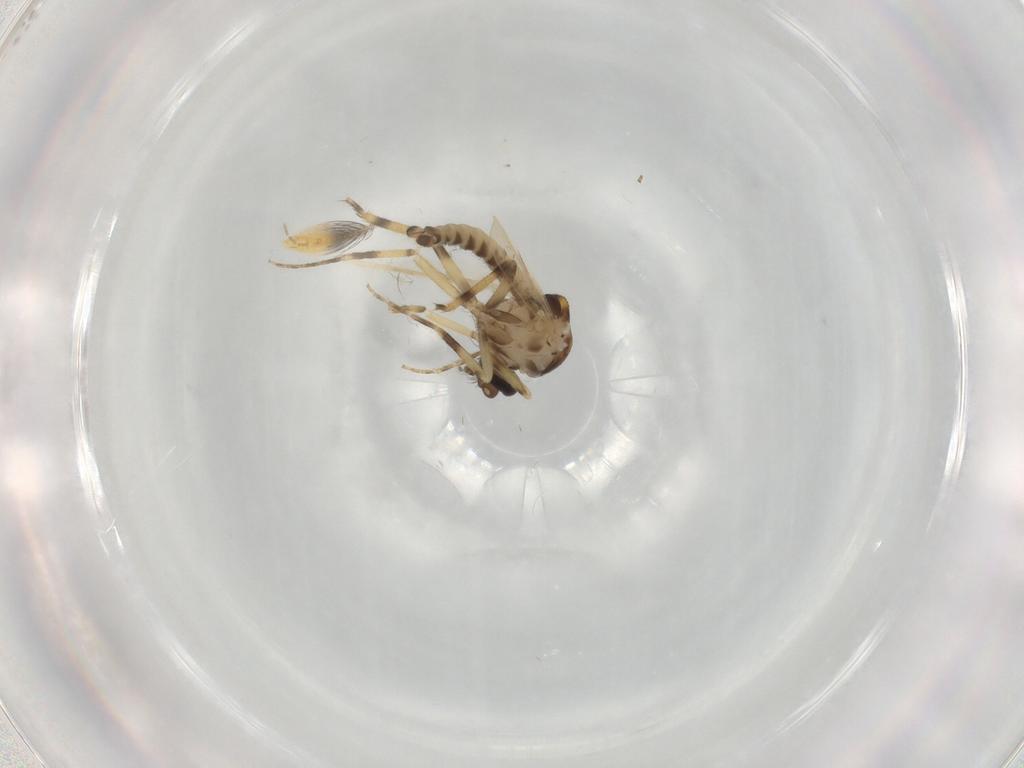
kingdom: Animalia
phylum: Arthropoda
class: Insecta
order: Diptera
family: Ceratopogonidae
